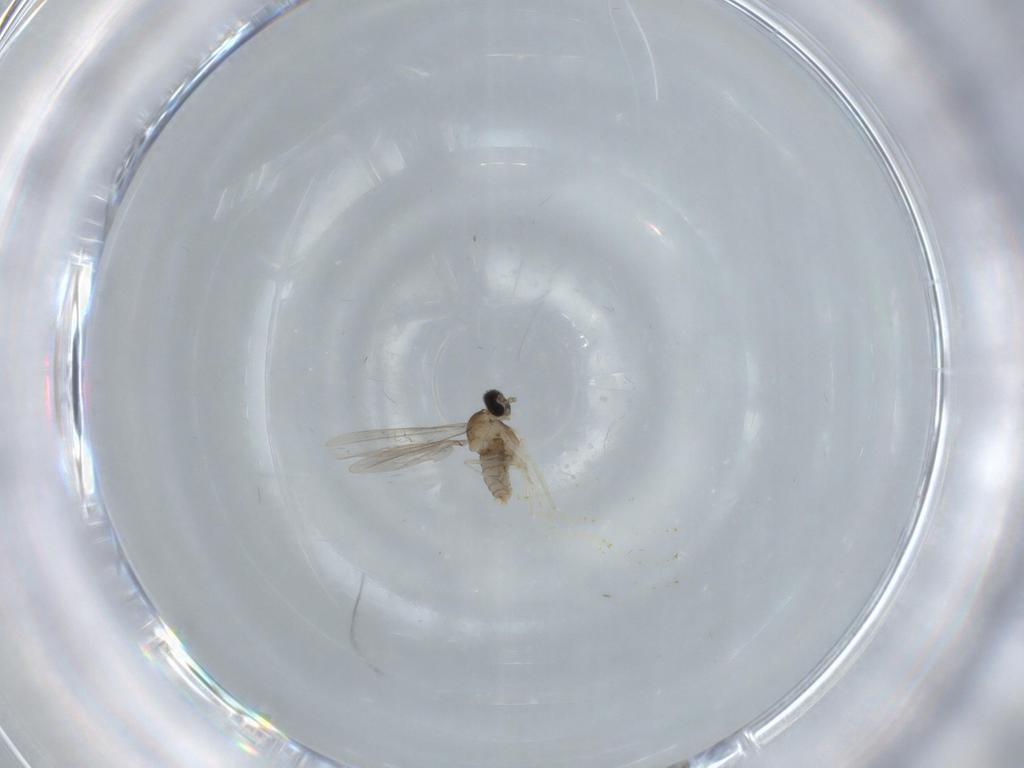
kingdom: Animalia
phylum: Arthropoda
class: Insecta
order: Diptera
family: Cecidomyiidae
